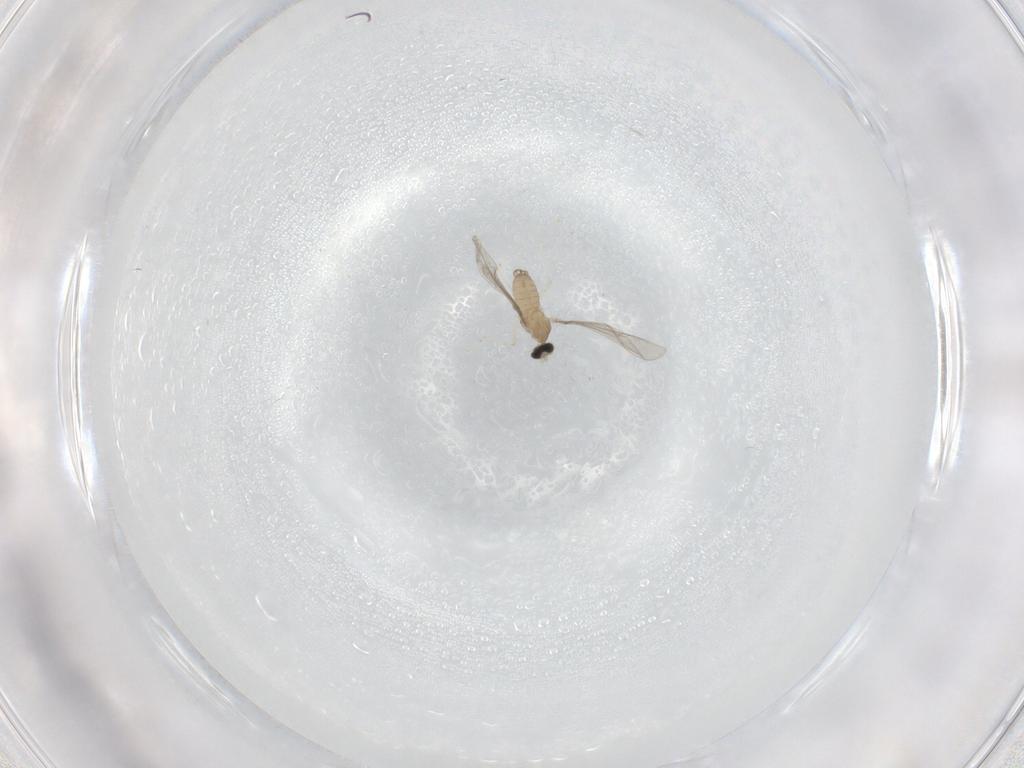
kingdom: Animalia
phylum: Arthropoda
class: Insecta
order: Diptera
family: Cecidomyiidae
